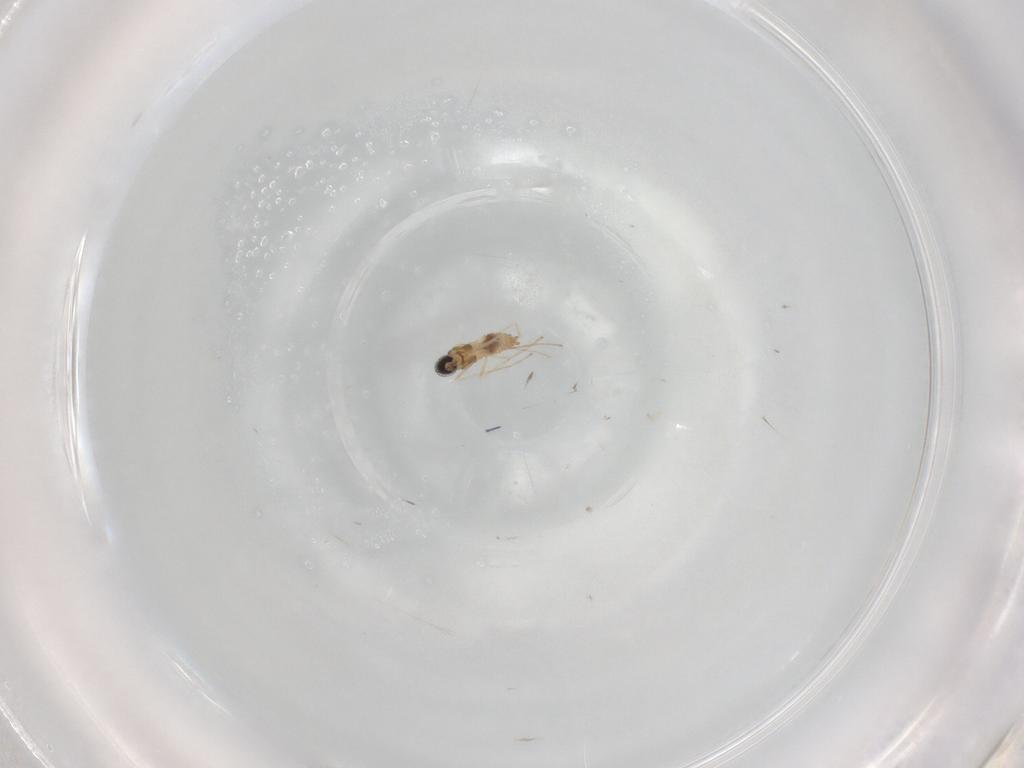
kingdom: Animalia
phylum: Arthropoda
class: Insecta
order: Diptera
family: Cecidomyiidae
